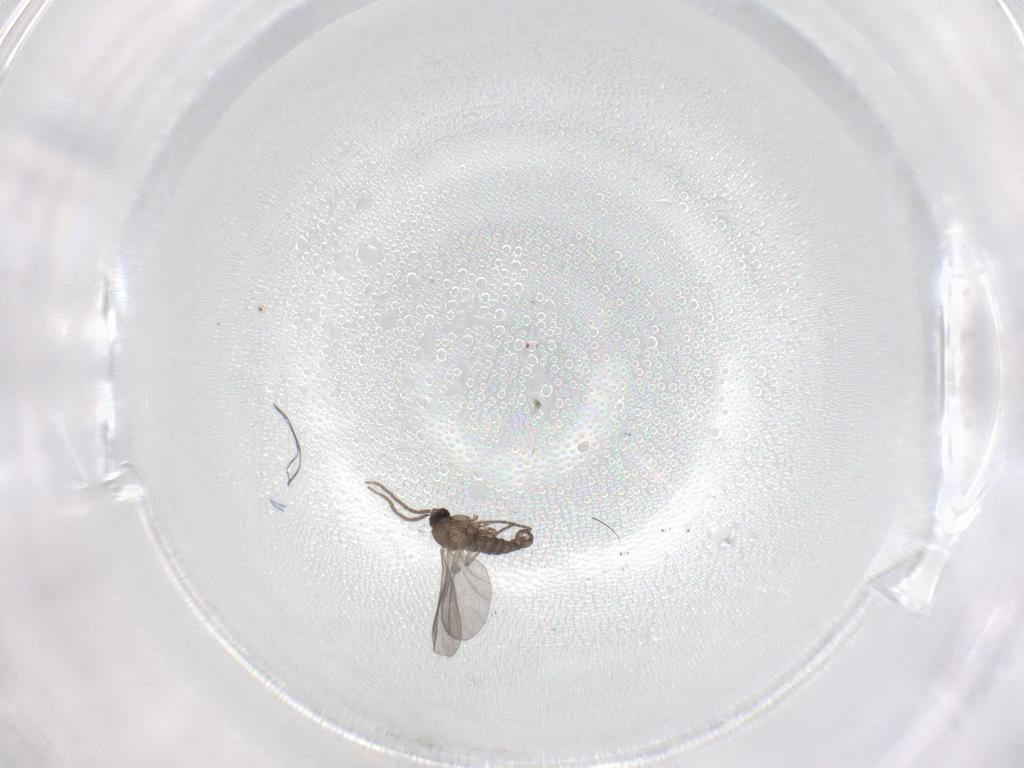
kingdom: Animalia
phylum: Arthropoda
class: Insecta
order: Diptera
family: Sciaridae
